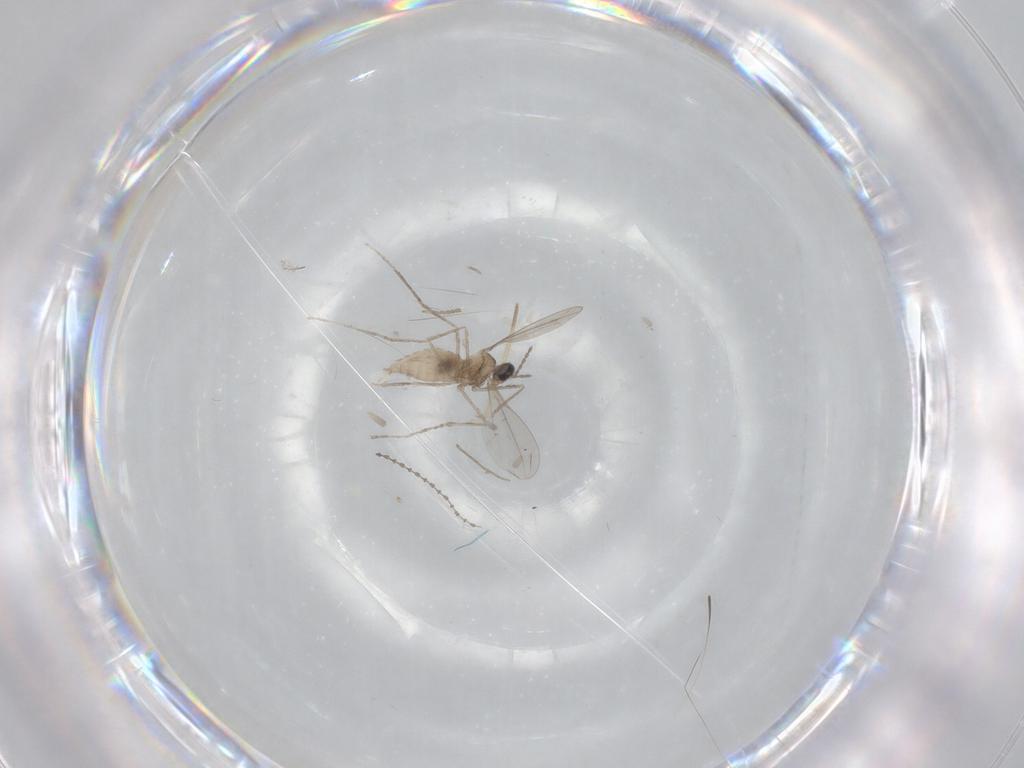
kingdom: Animalia
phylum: Arthropoda
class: Insecta
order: Diptera
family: Cecidomyiidae
